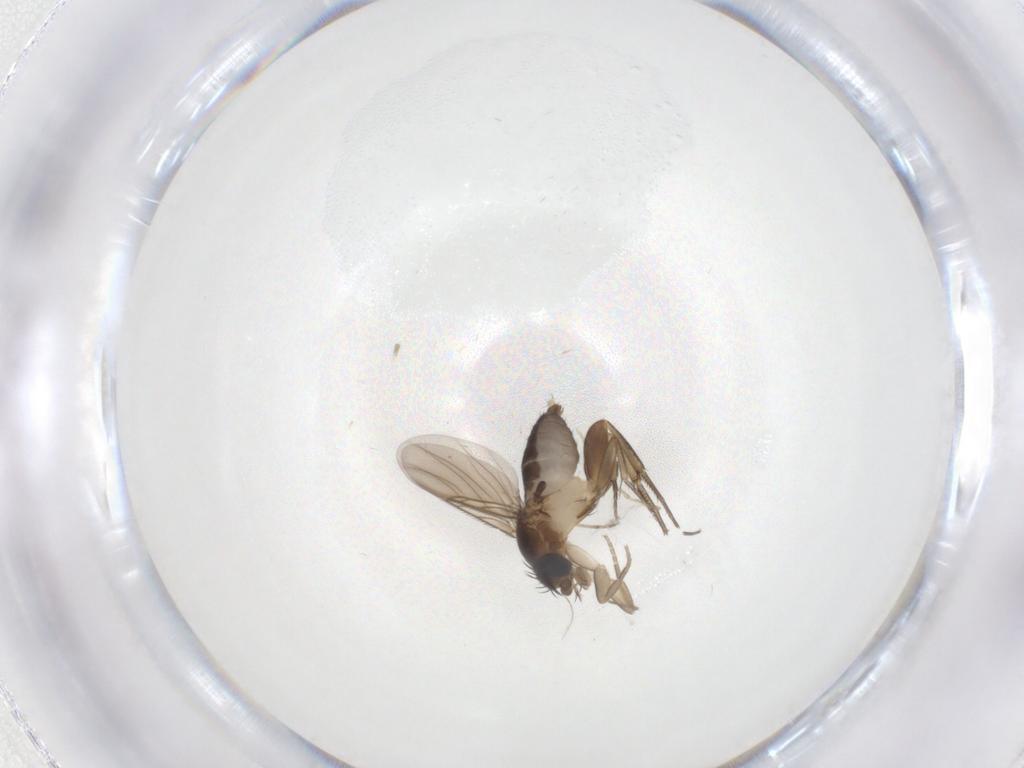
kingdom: Animalia
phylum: Arthropoda
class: Insecta
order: Diptera
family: Phoridae
